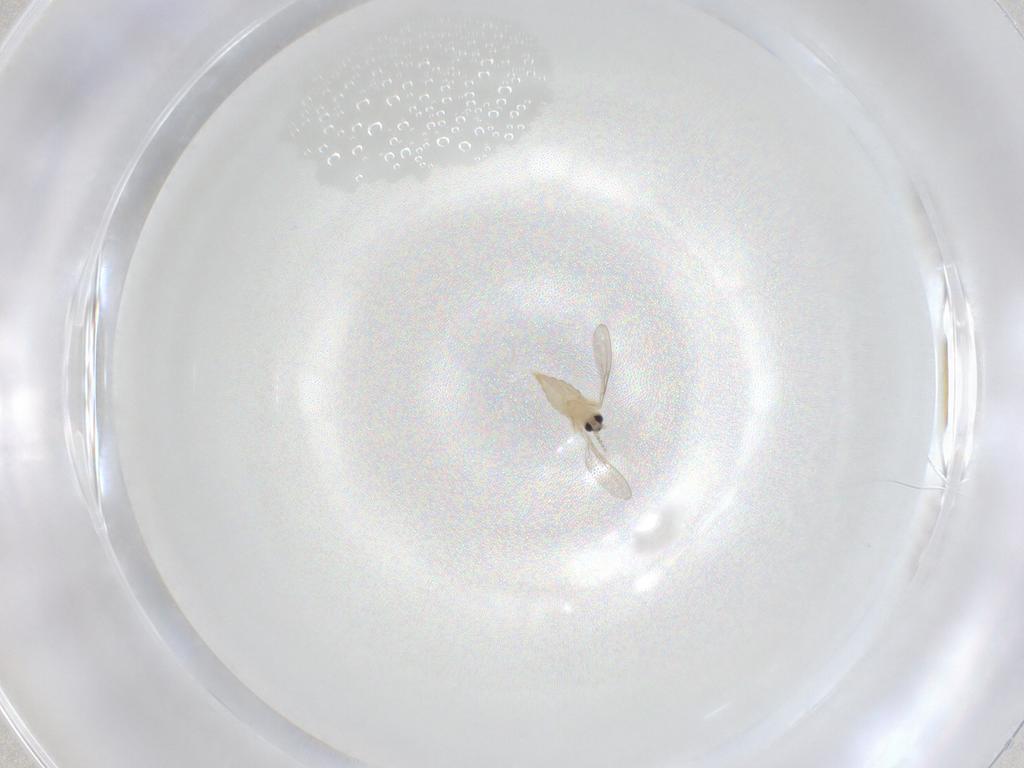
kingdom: Animalia
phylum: Arthropoda
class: Insecta
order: Diptera
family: Cecidomyiidae
